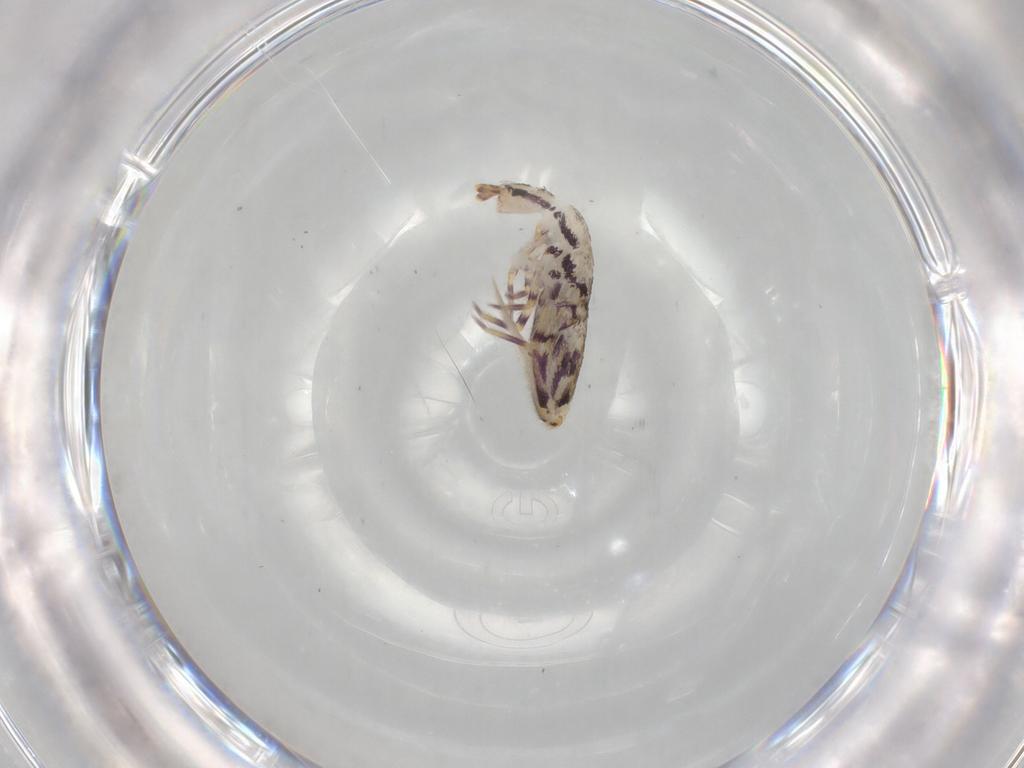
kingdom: Animalia
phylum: Arthropoda
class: Collembola
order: Entomobryomorpha
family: Entomobryidae
